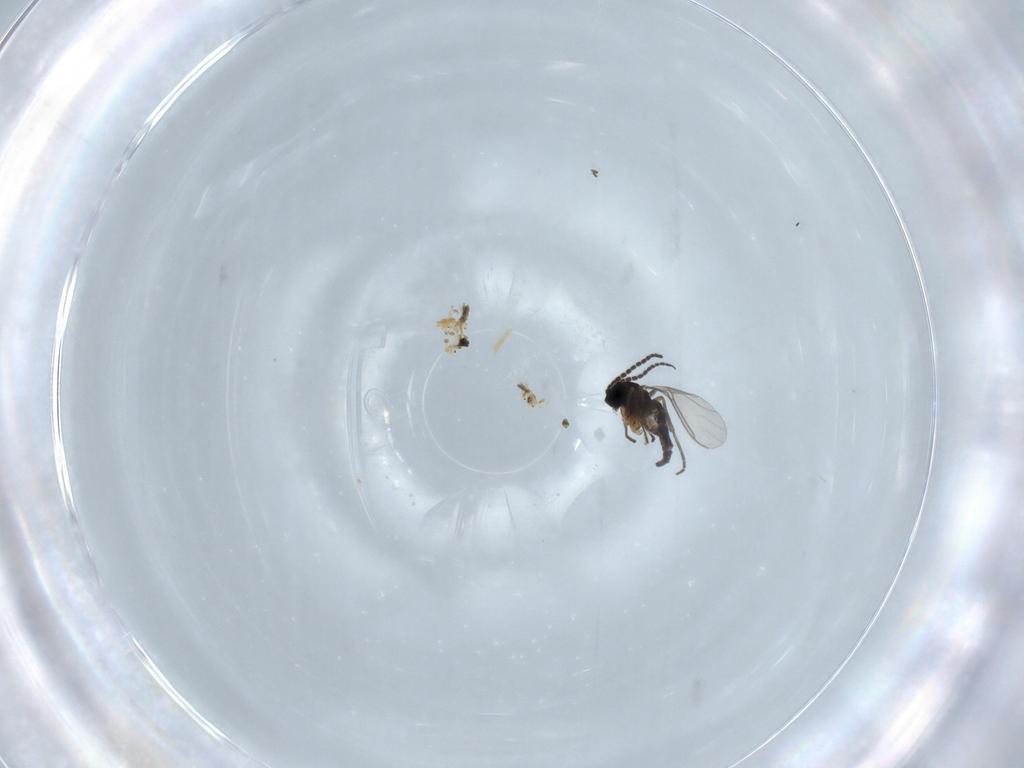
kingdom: Animalia
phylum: Arthropoda
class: Insecta
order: Diptera
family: Sciaridae
